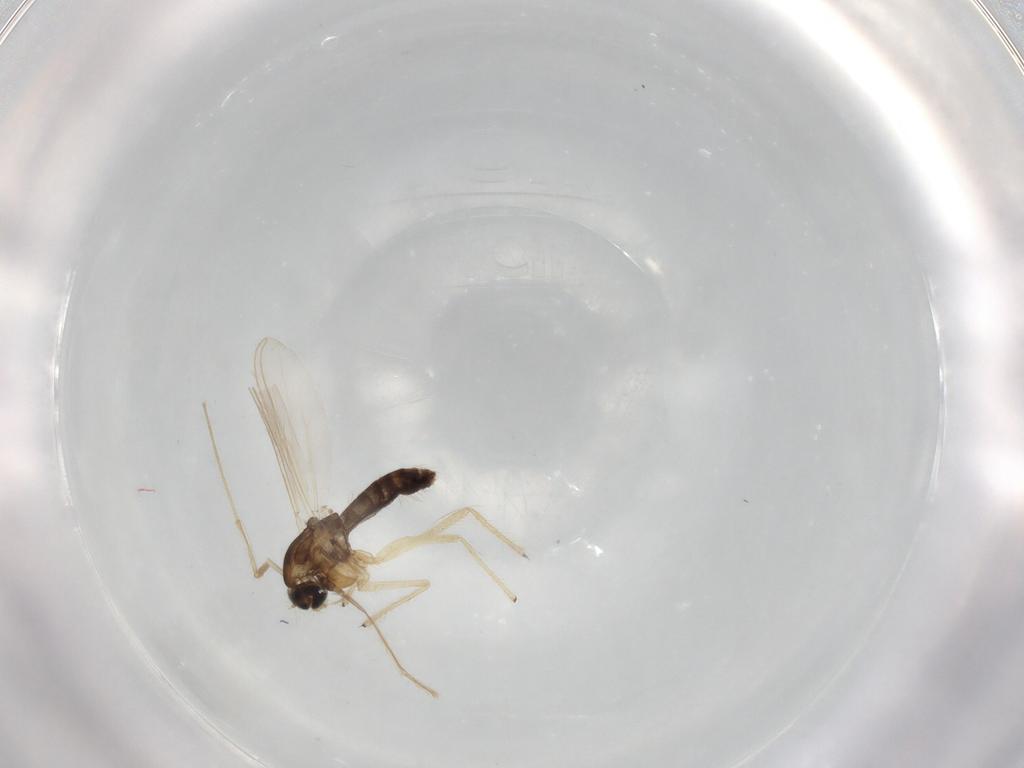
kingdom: Animalia
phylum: Arthropoda
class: Insecta
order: Diptera
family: Chironomidae
